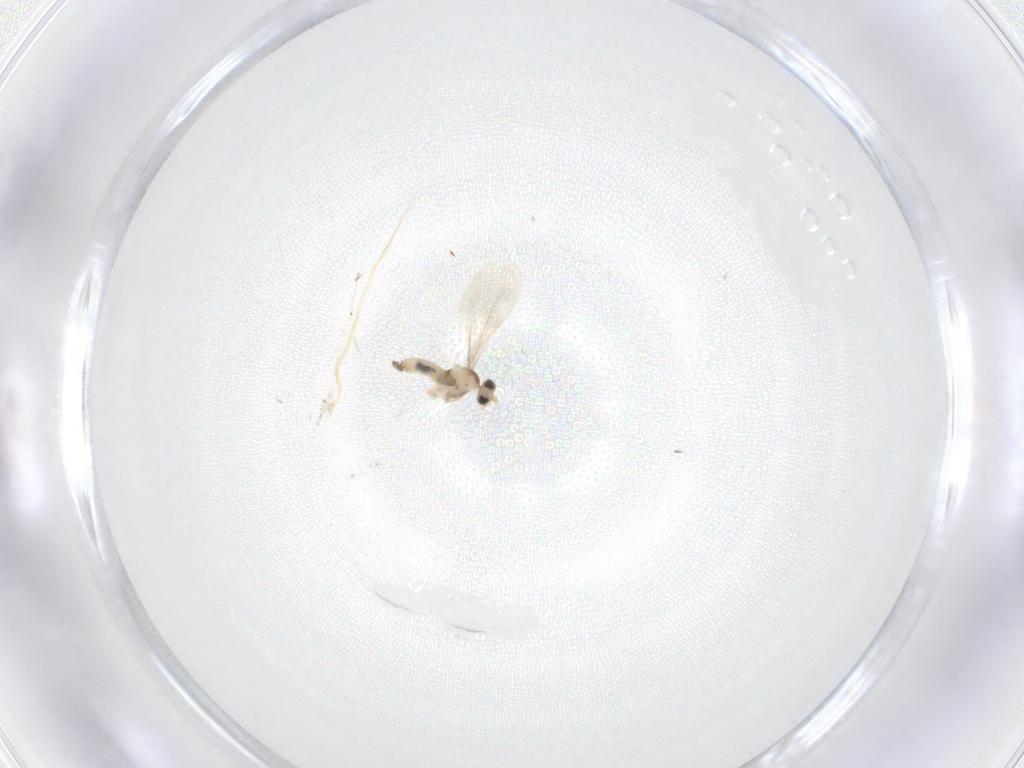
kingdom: Animalia
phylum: Arthropoda
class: Insecta
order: Diptera
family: Cecidomyiidae
